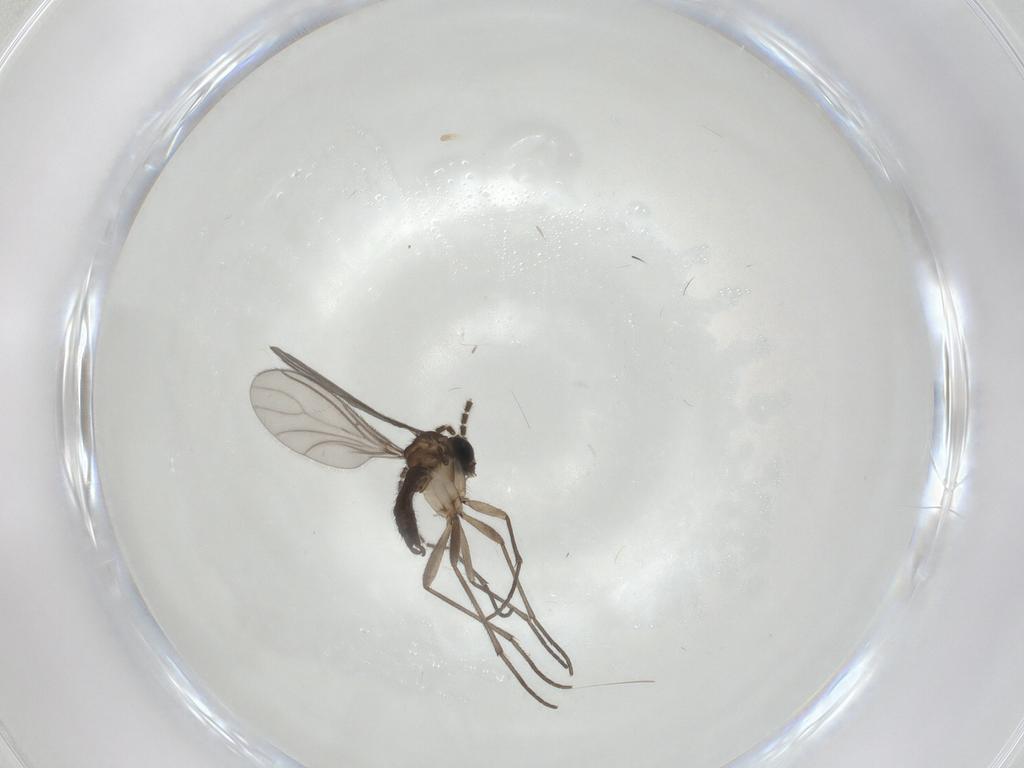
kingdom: Animalia
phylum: Arthropoda
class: Insecta
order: Diptera
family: Sciaridae
